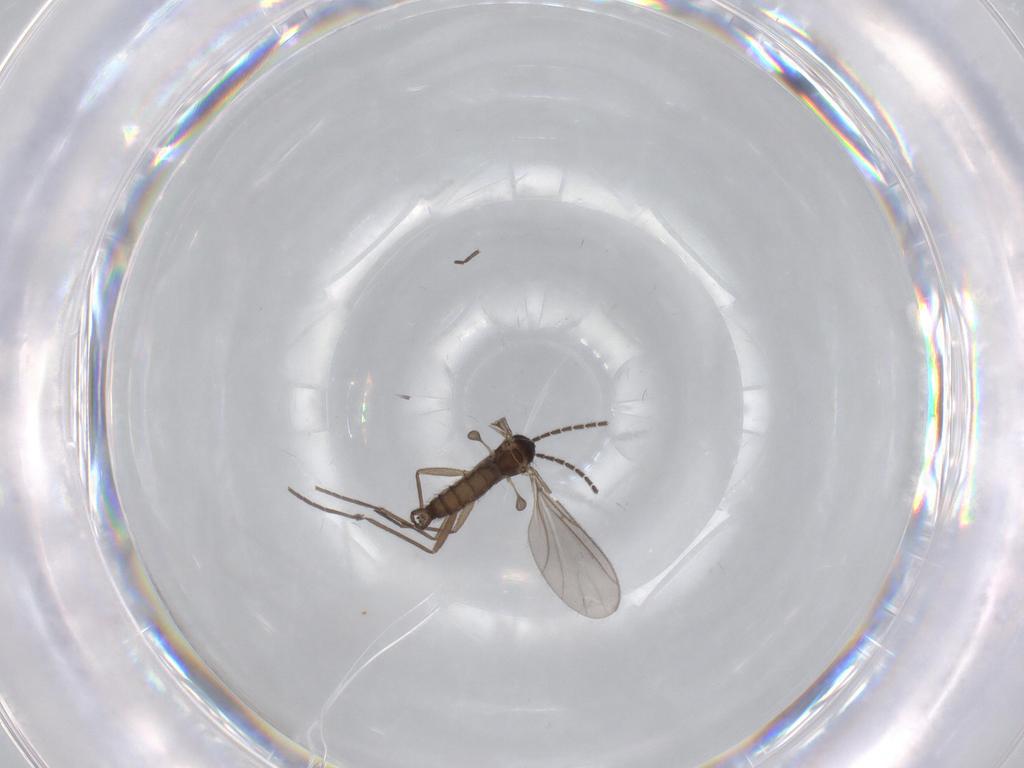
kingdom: Animalia
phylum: Arthropoda
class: Insecta
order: Diptera
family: Sciaridae
